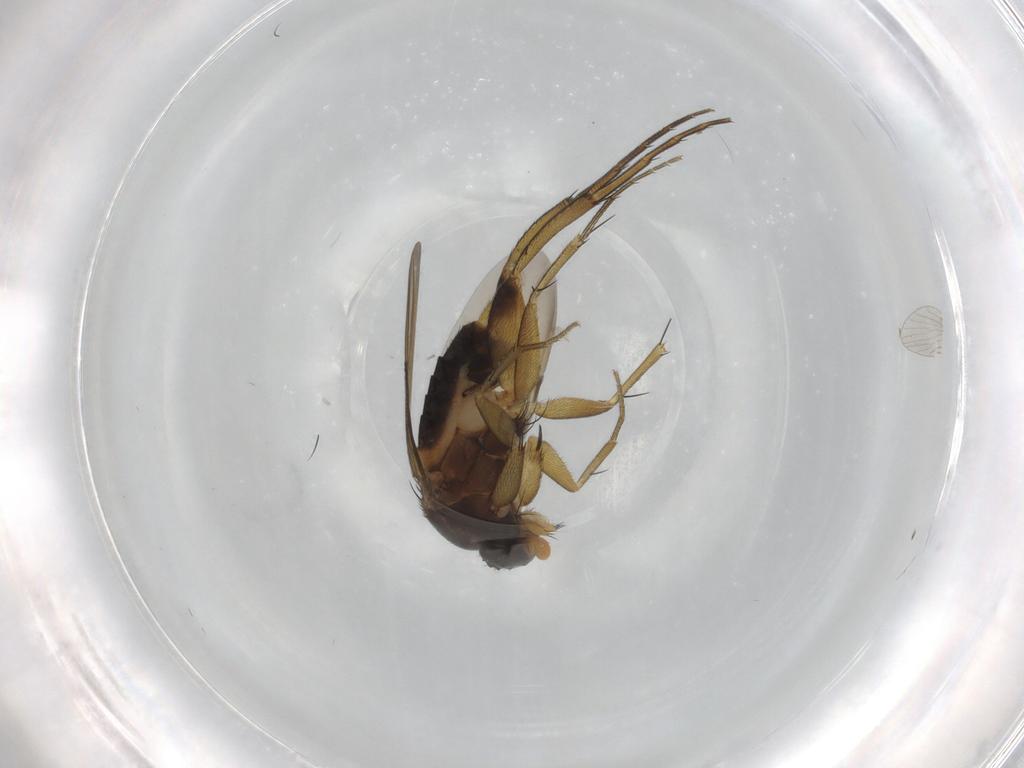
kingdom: Animalia
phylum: Arthropoda
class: Insecta
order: Diptera
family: Phoridae
